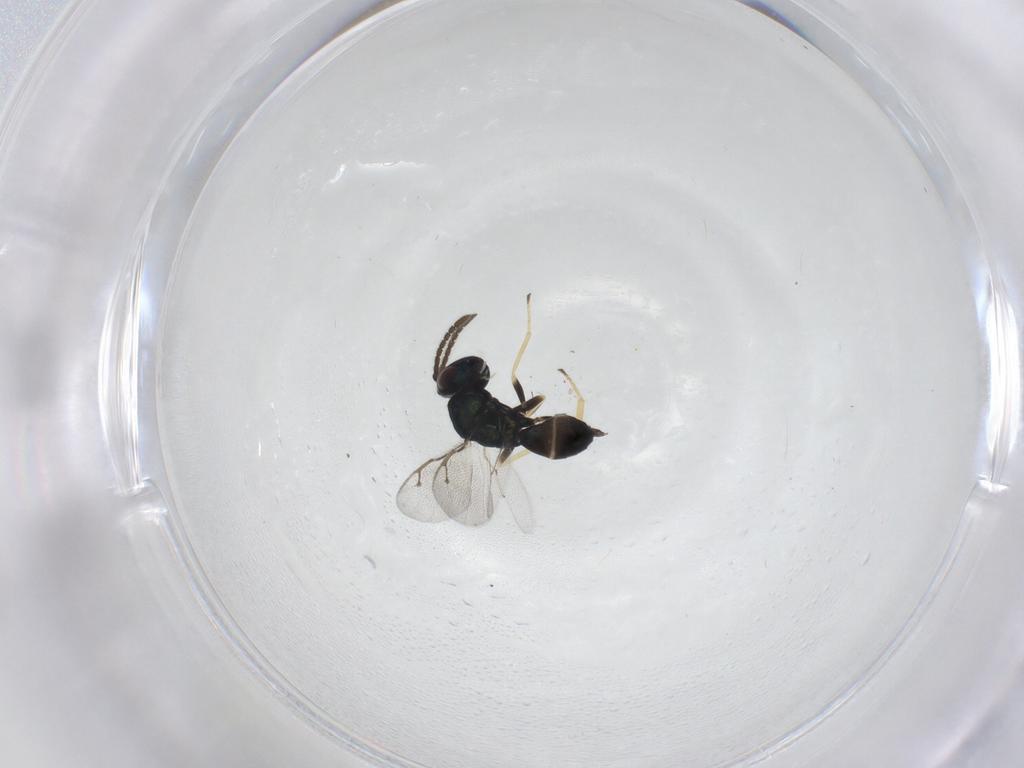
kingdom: Animalia
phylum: Arthropoda
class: Insecta
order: Hymenoptera
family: Pteromalidae
